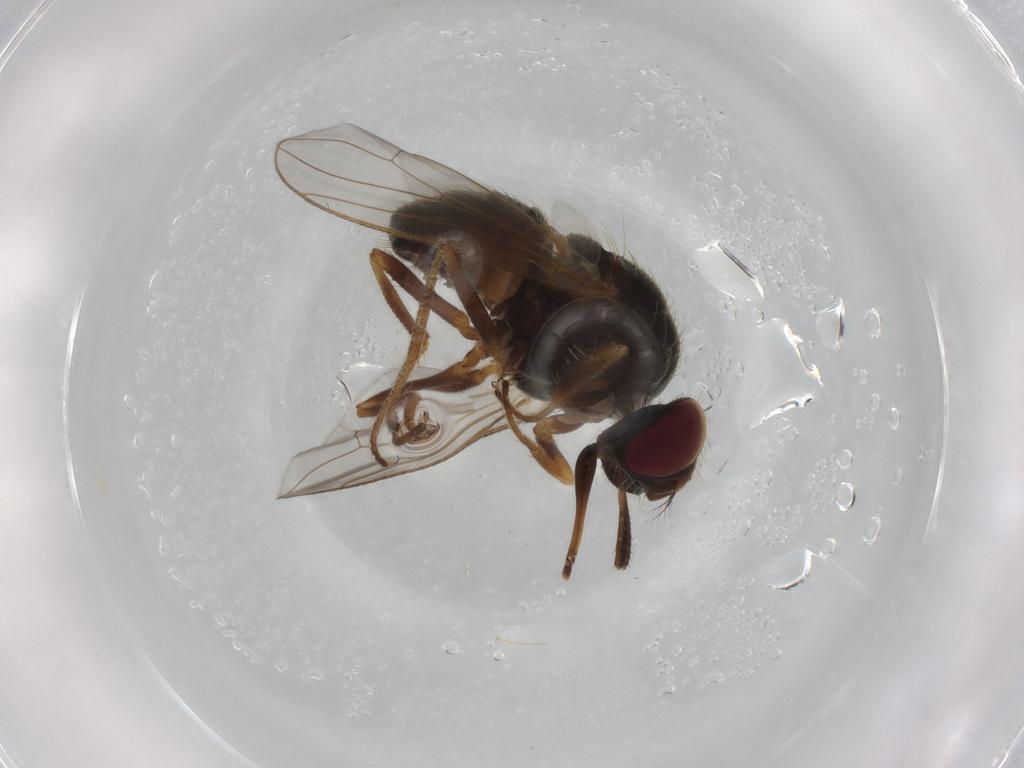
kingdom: Animalia
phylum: Arthropoda
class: Insecta
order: Diptera
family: Muscidae
